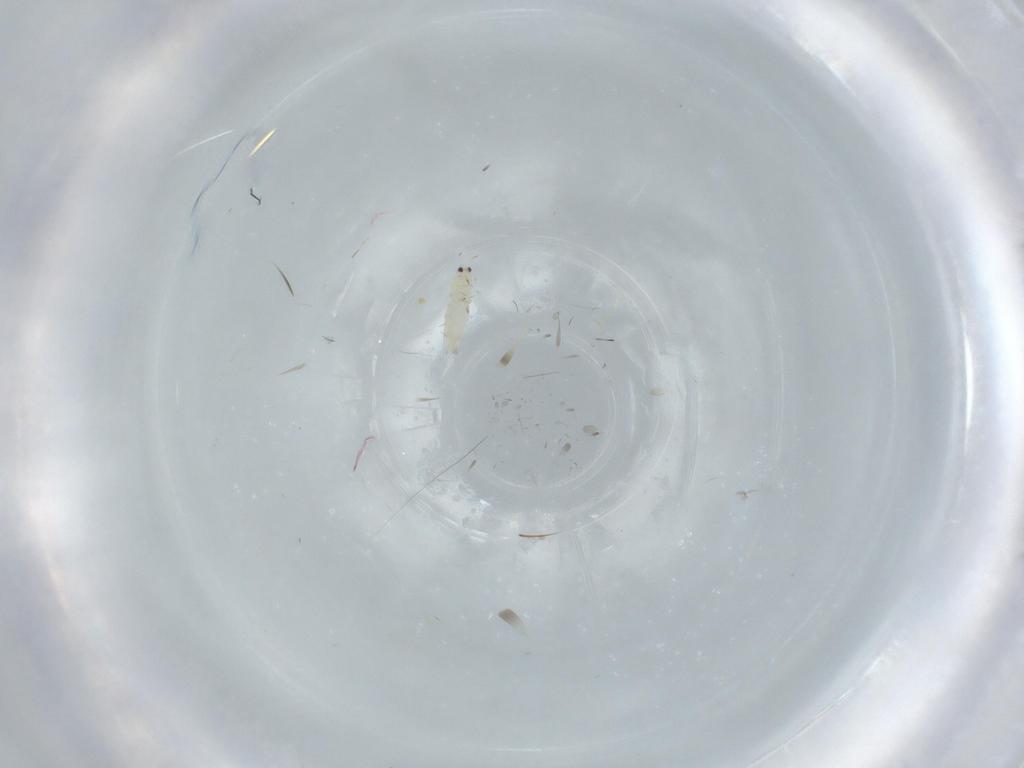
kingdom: Animalia
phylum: Arthropoda
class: Insecta
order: Thysanoptera
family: Thripidae
